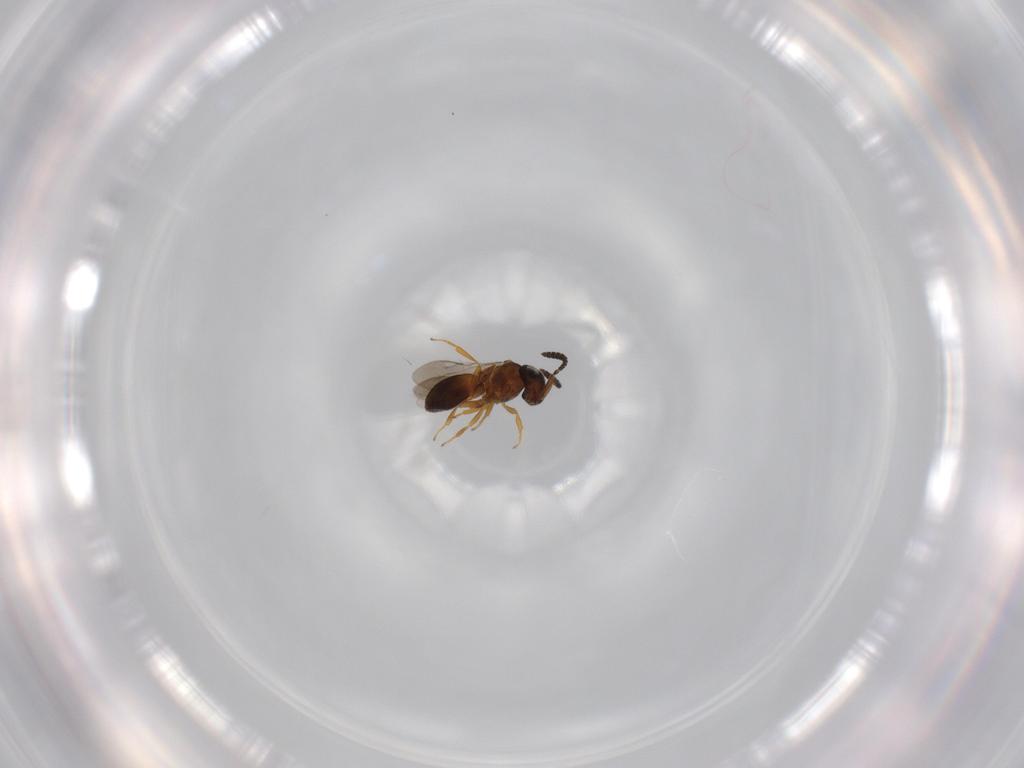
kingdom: Animalia
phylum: Arthropoda
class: Insecta
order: Hymenoptera
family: Scelionidae
